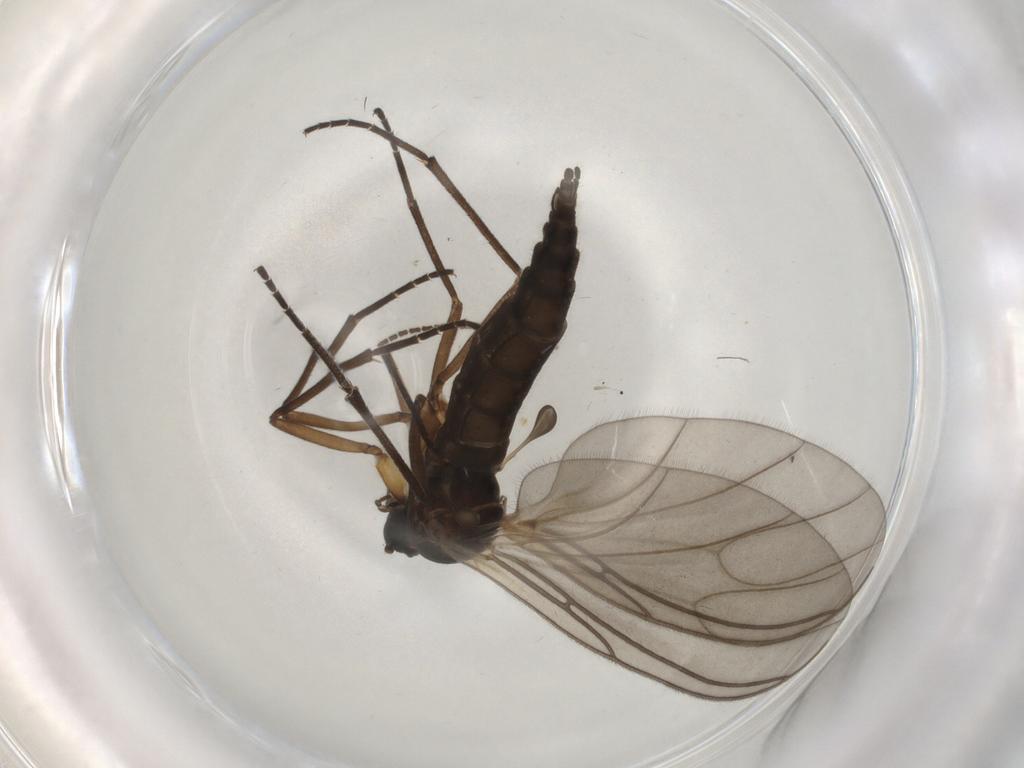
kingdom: Animalia
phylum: Arthropoda
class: Insecta
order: Diptera
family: Sciaridae
